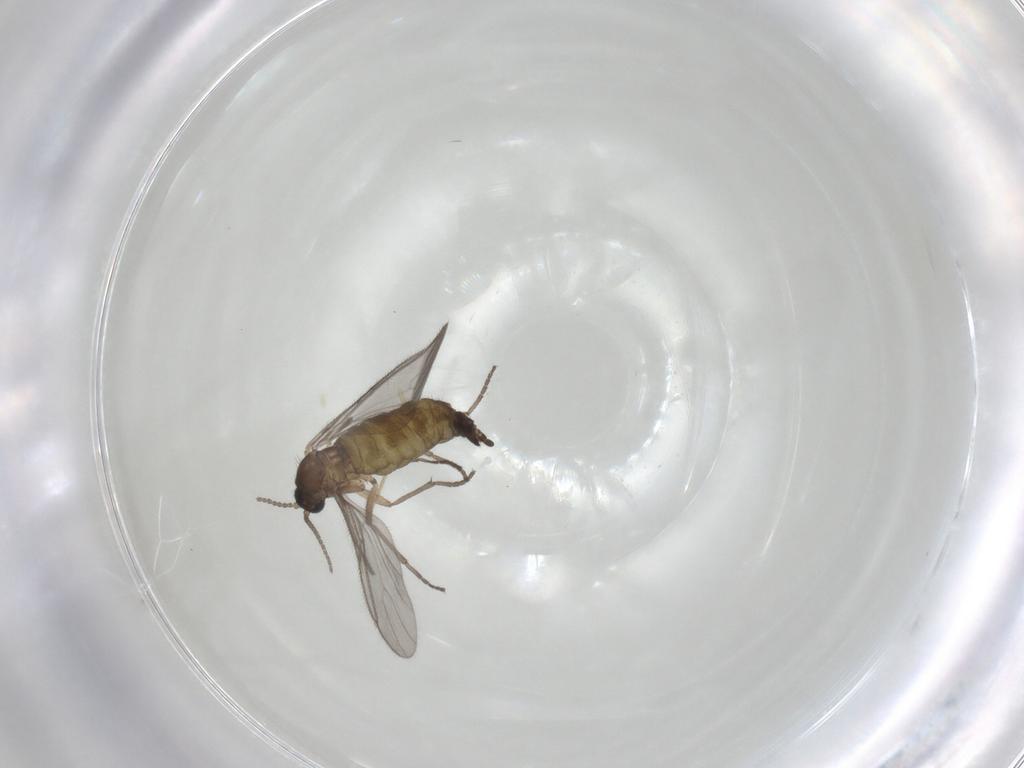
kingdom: Animalia
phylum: Arthropoda
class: Insecta
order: Diptera
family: Sciaridae
